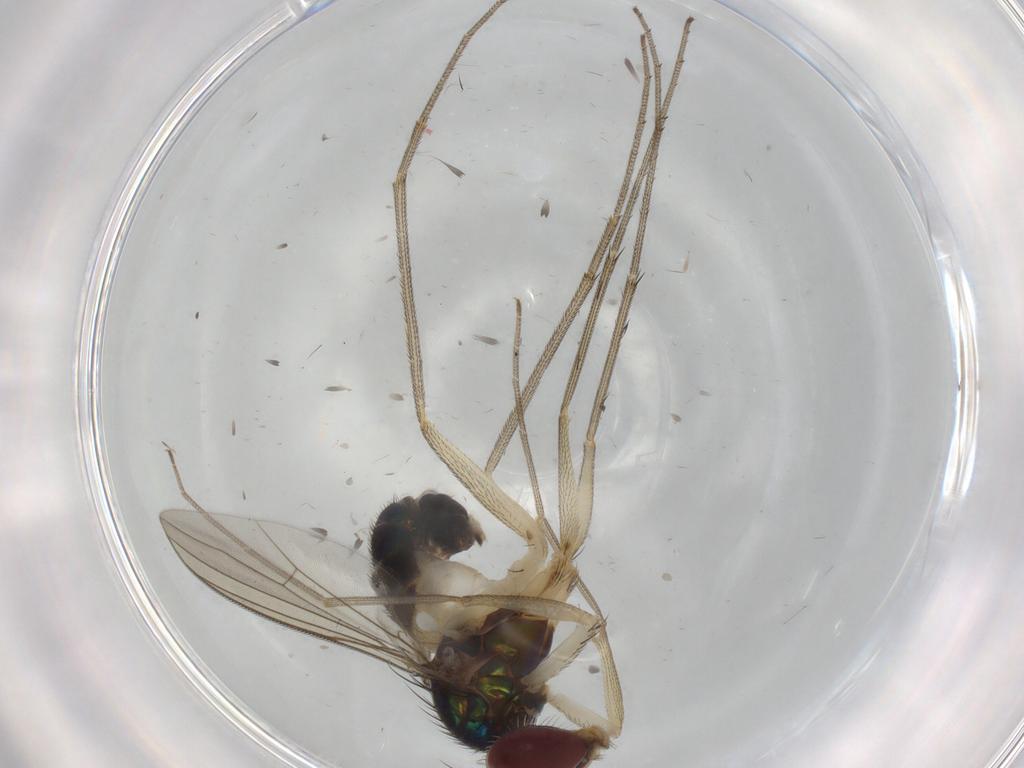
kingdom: Animalia
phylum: Arthropoda
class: Insecta
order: Diptera
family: Dolichopodidae
